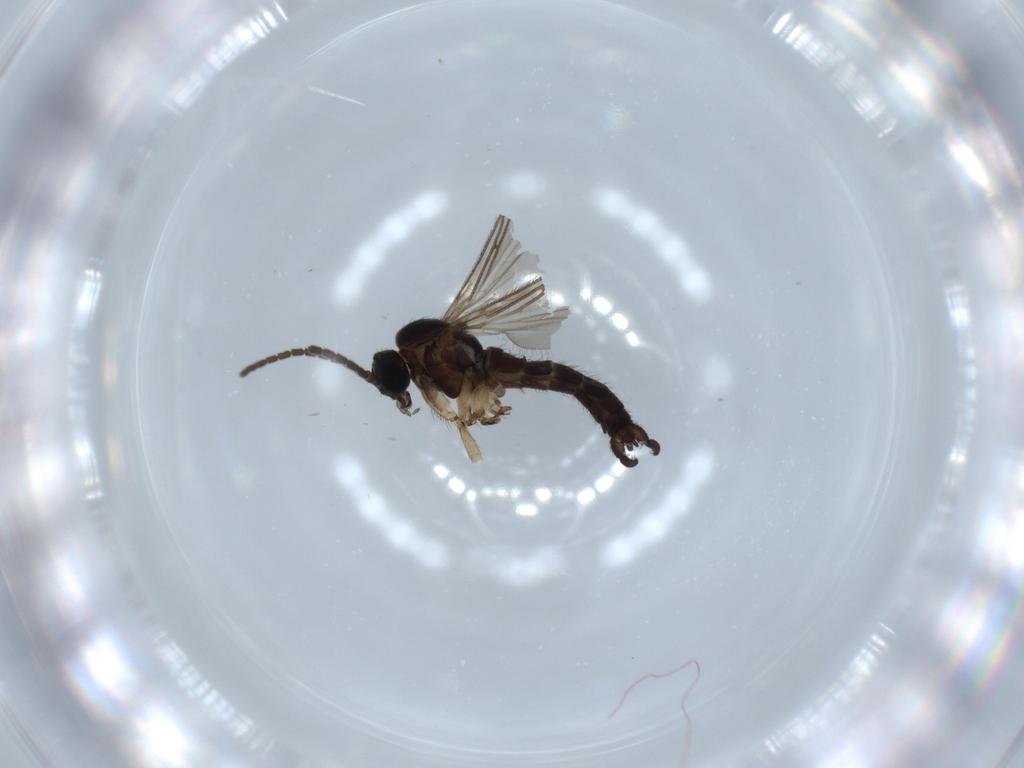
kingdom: Animalia
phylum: Arthropoda
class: Insecta
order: Diptera
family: Sciaridae
